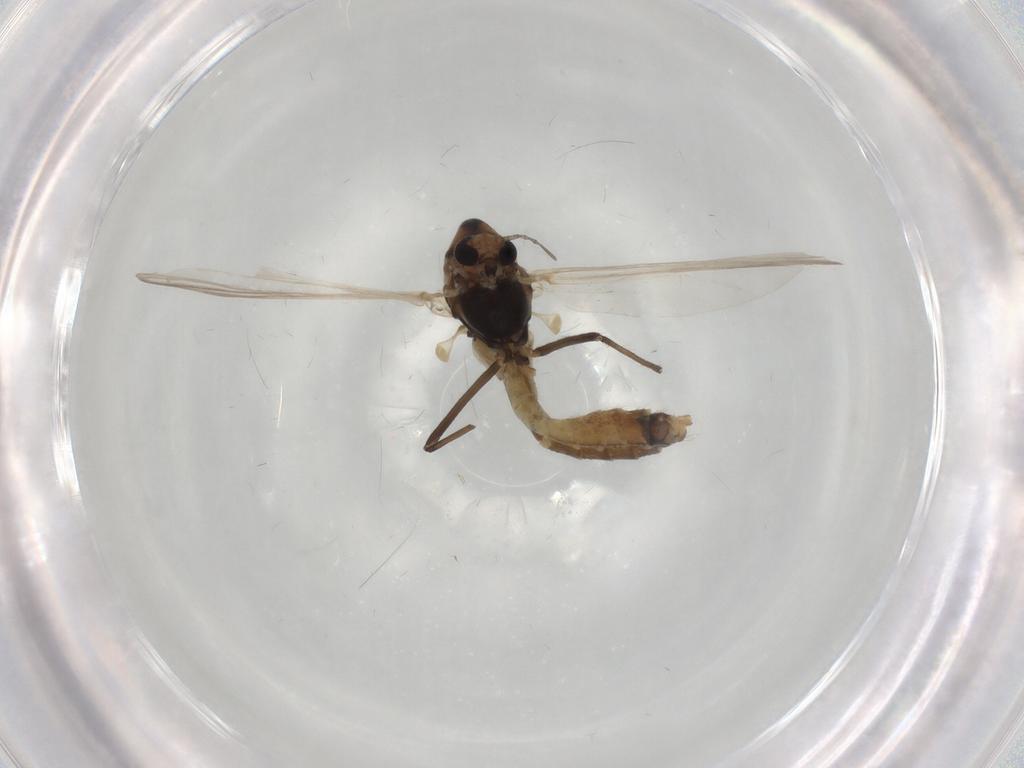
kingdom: Animalia
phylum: Arthropoda
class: Insecta
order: Diptera
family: Chironomidae
